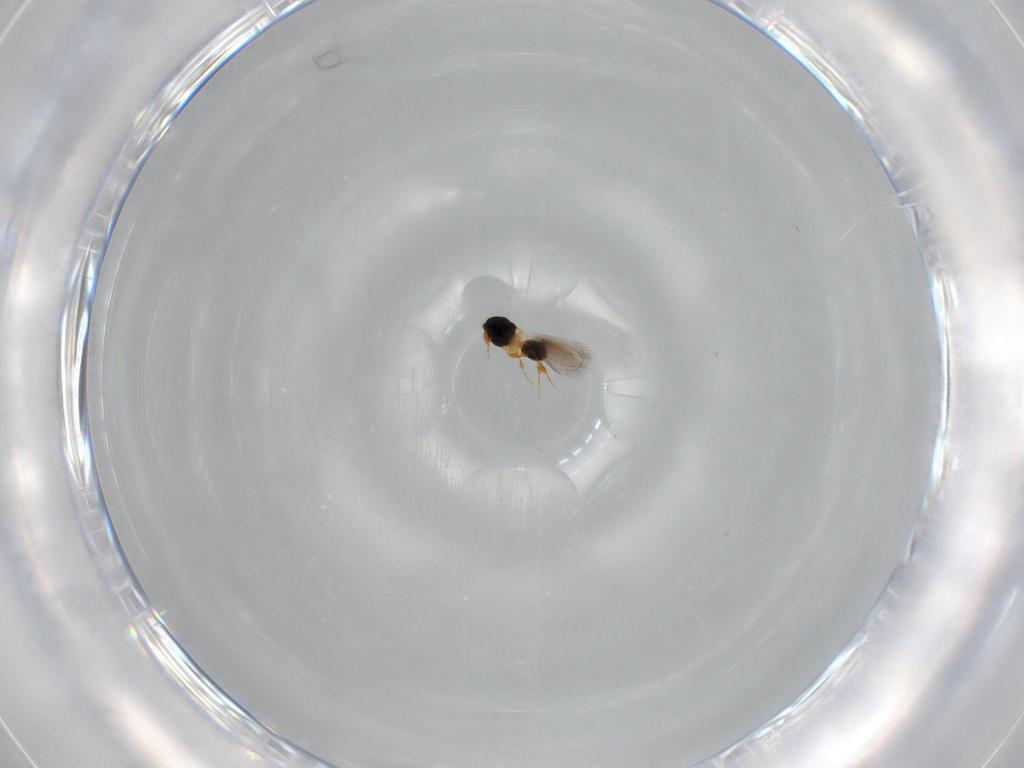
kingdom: Animalia
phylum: Arthropoda
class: Insecta
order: Hymenoptera
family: Platygastridae
